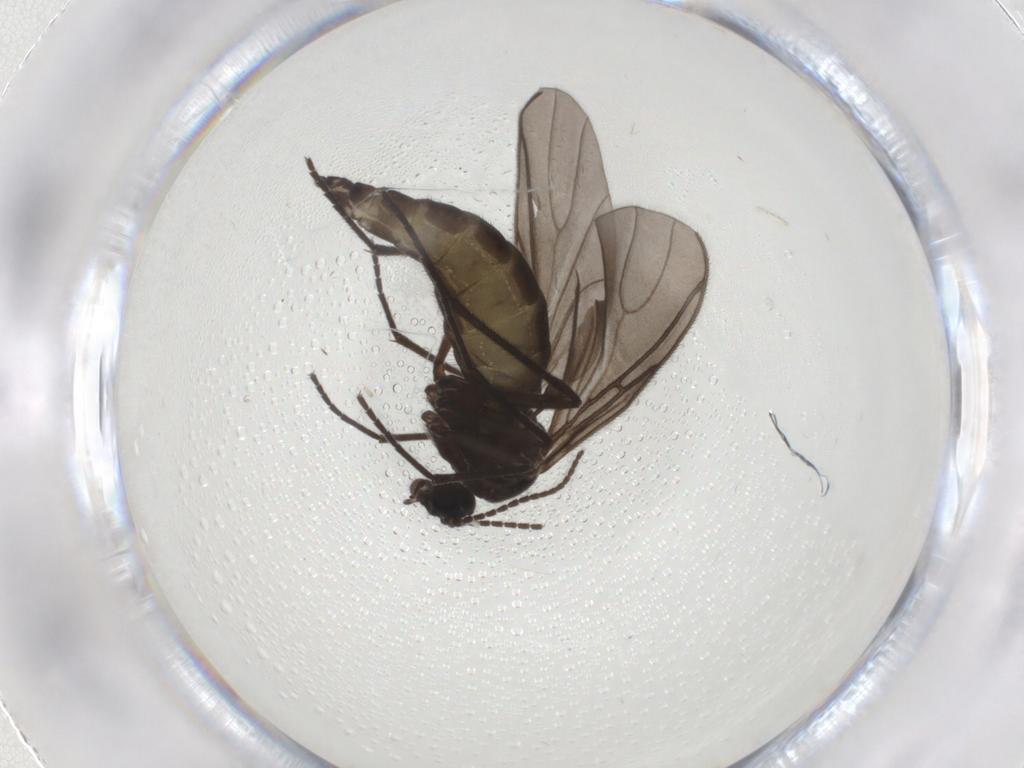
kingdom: Animalia
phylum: Arthropoda
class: Insecta
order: Diptera
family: Sciaridae
